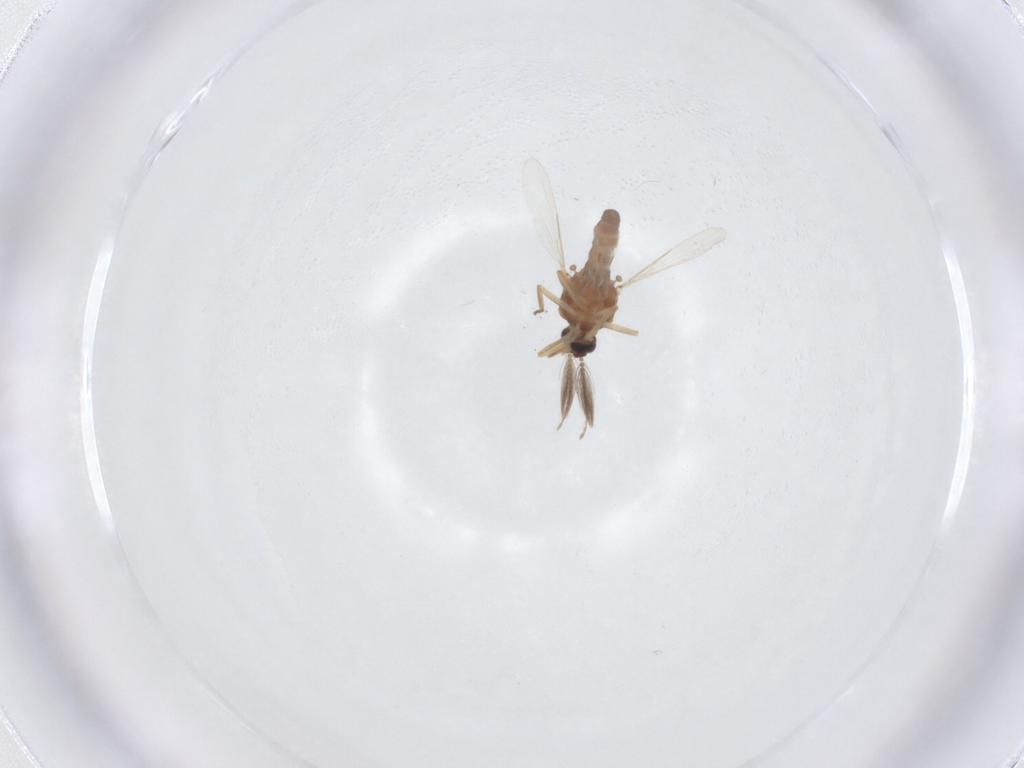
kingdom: Animalia
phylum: Arthropoda
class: Insecta
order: Diptera
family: Ceratopogonidae
